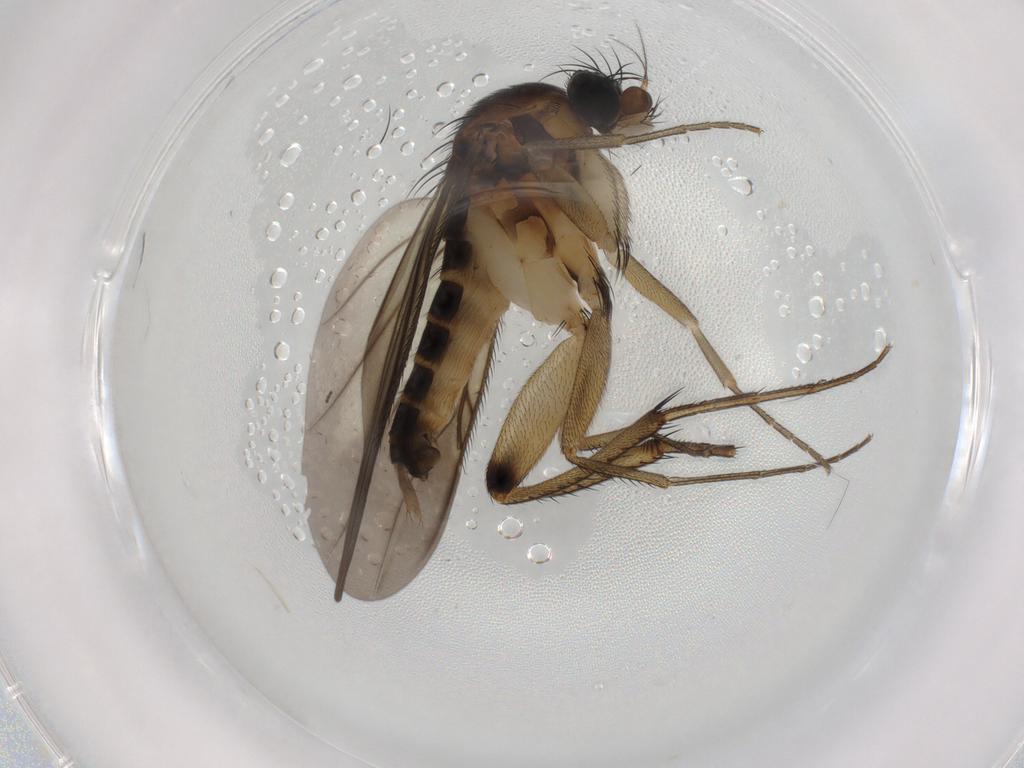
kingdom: Animalia
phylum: Arthropoda
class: Insecta
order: Diptera
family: Phoridae
